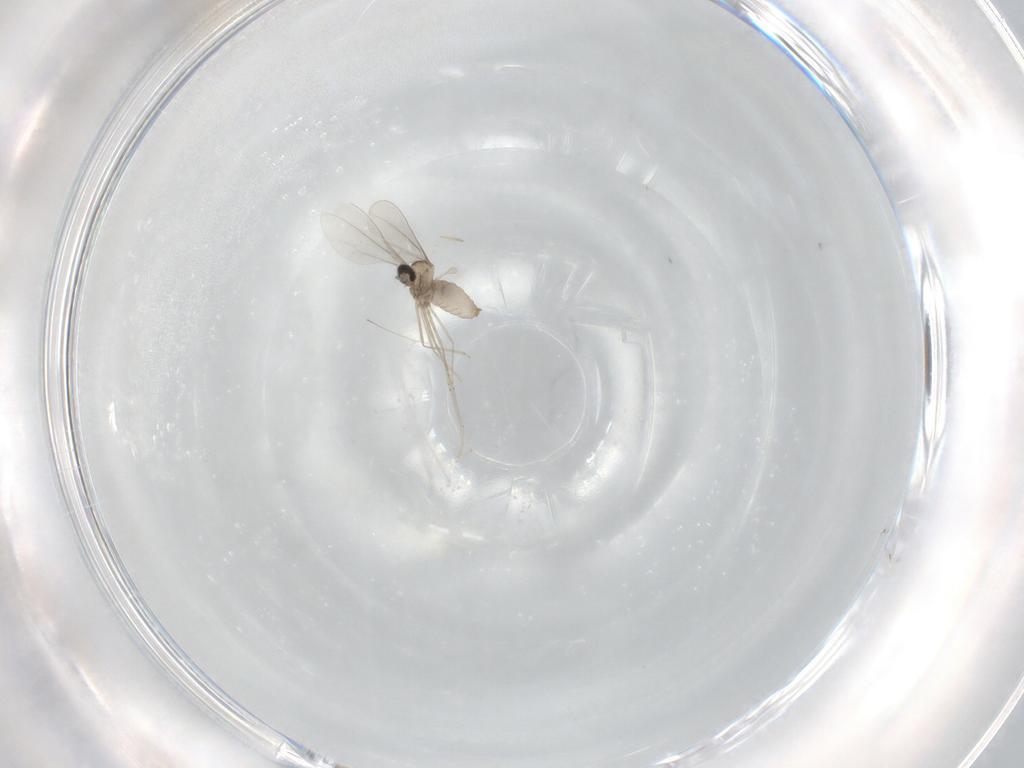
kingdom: Animalia
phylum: Arthropoda
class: Insecta
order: Diptera
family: Cecidomyiidae
